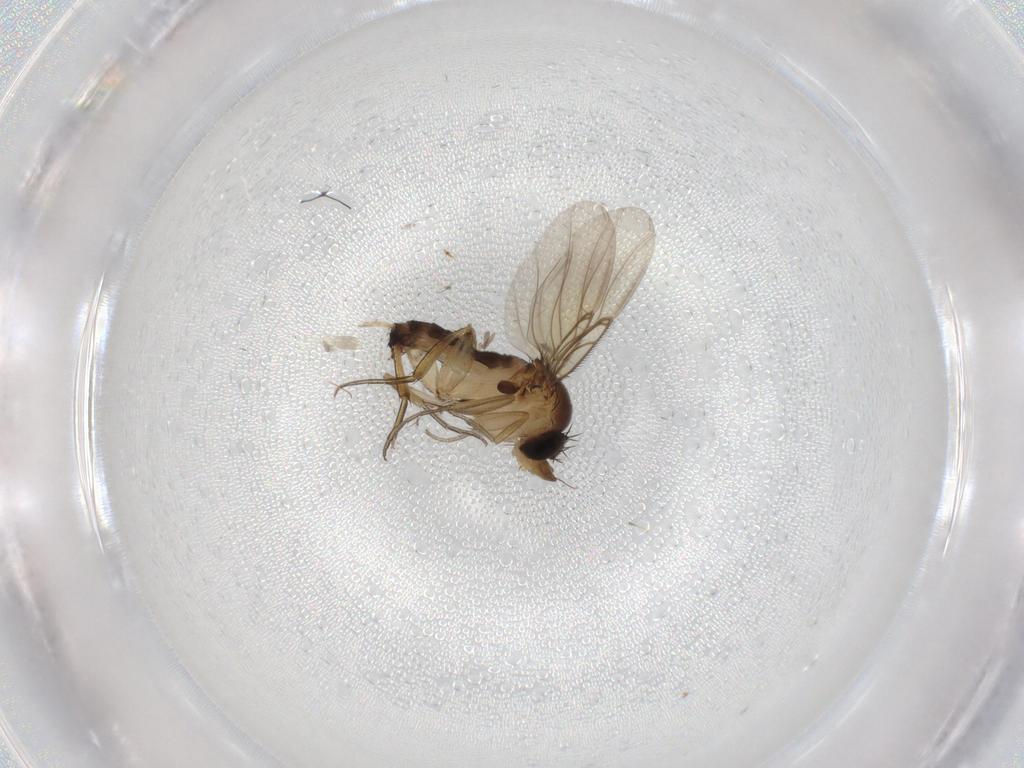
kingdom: Animalia
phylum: Arthropoda
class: Insecta
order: Diptera
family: Phoridae
